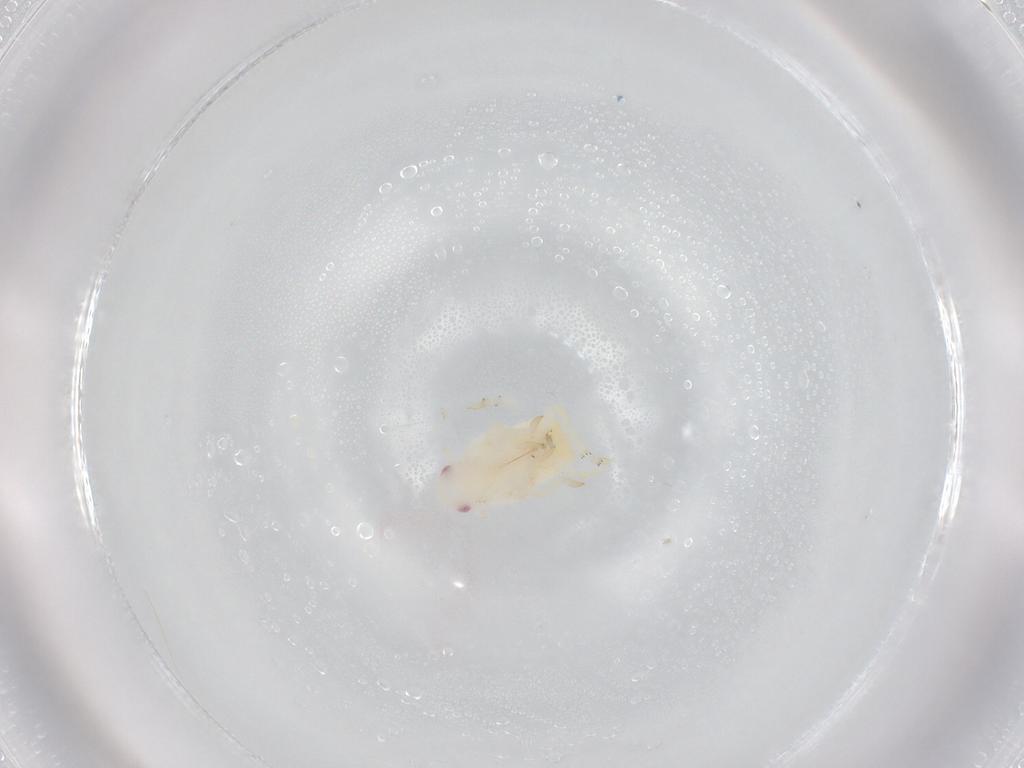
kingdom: Animalia
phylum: Arthropoda
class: Insecta
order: Hemiptera
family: Flatidae
